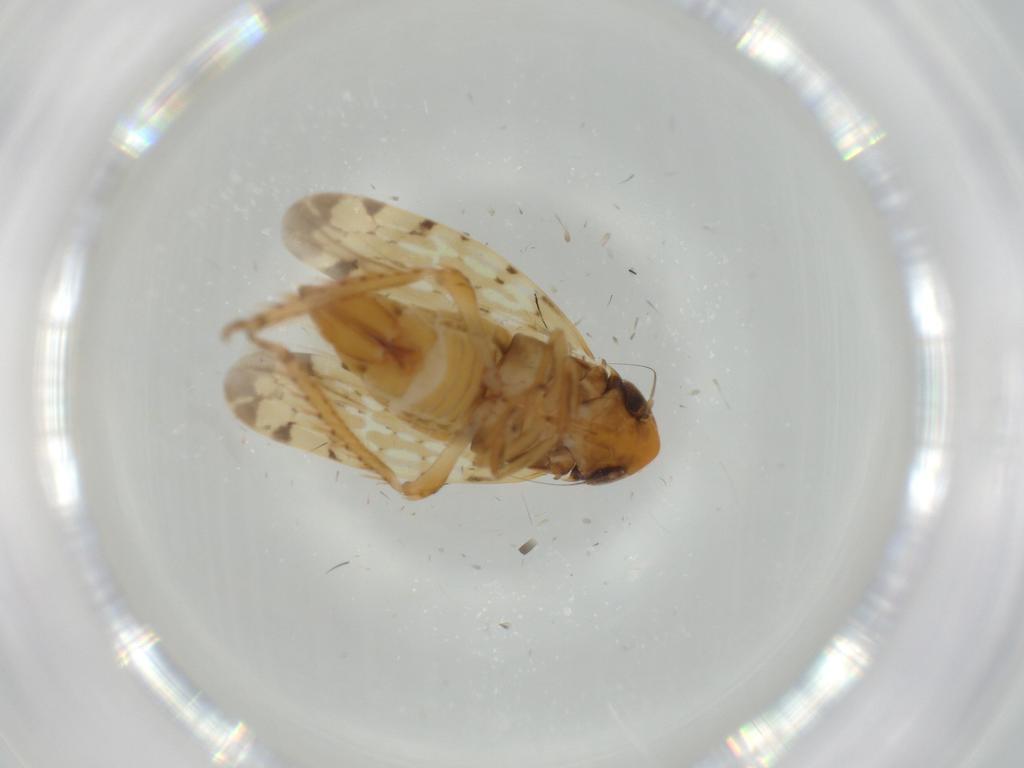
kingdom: Animalia
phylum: Arthropoda
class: Insecta
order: Hemiptera
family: Cicadellidae
